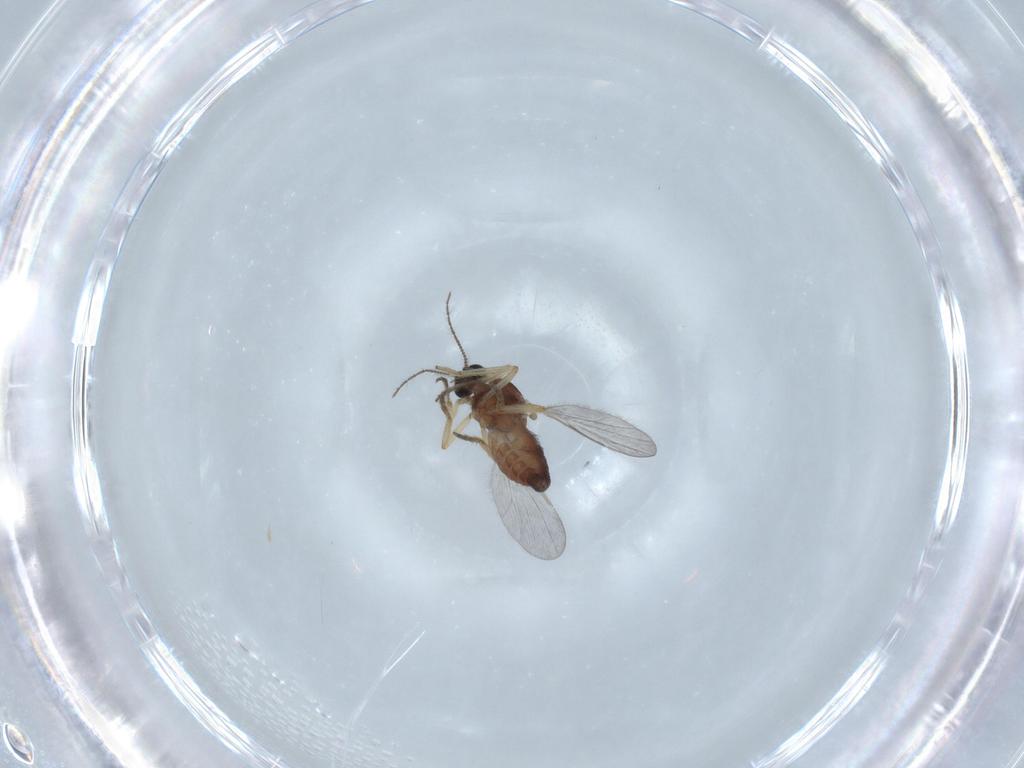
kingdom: Animalia
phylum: Arthropoda
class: Insecta
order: Diptera
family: Ceratopogonidae
